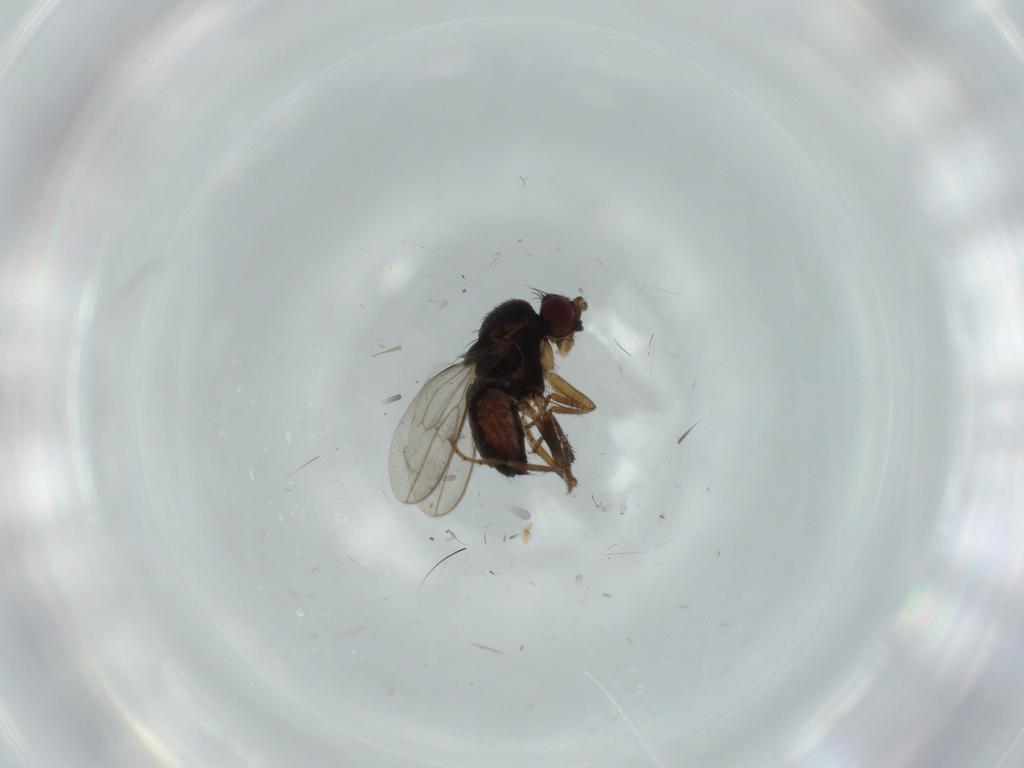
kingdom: Animalia
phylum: Arthropoda
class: Insecta
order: Diptera
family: Sphaeroceridae
